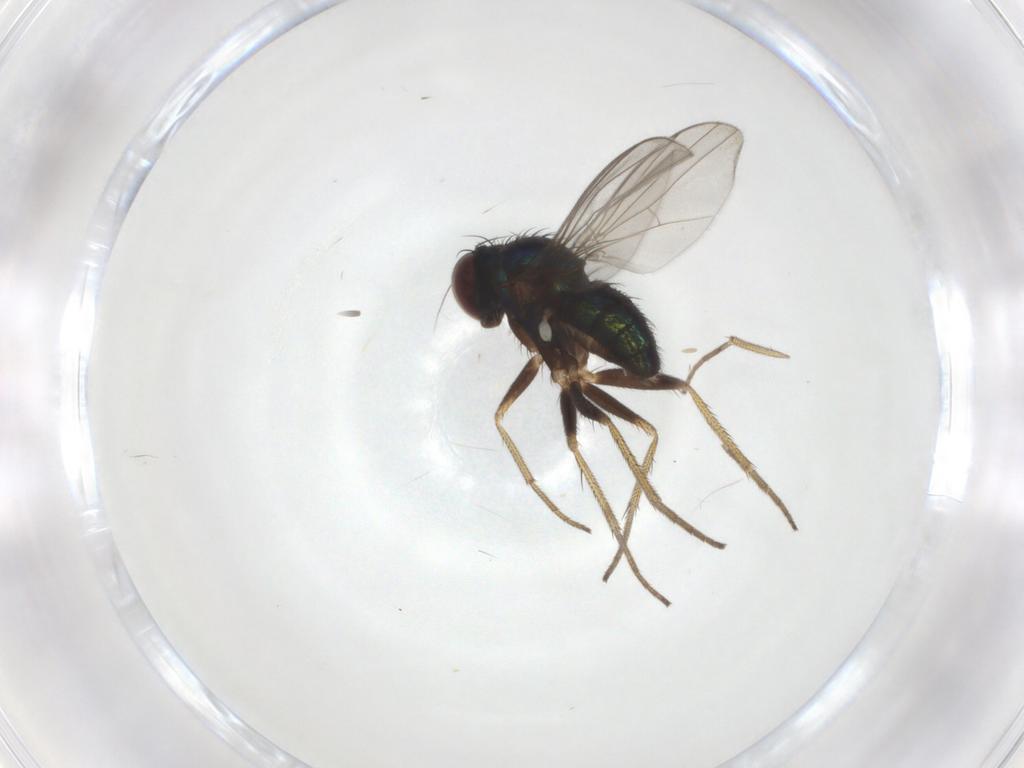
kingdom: Animalia
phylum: Arthropoda
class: Insecta
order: Diptera
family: Dolichopodidae
